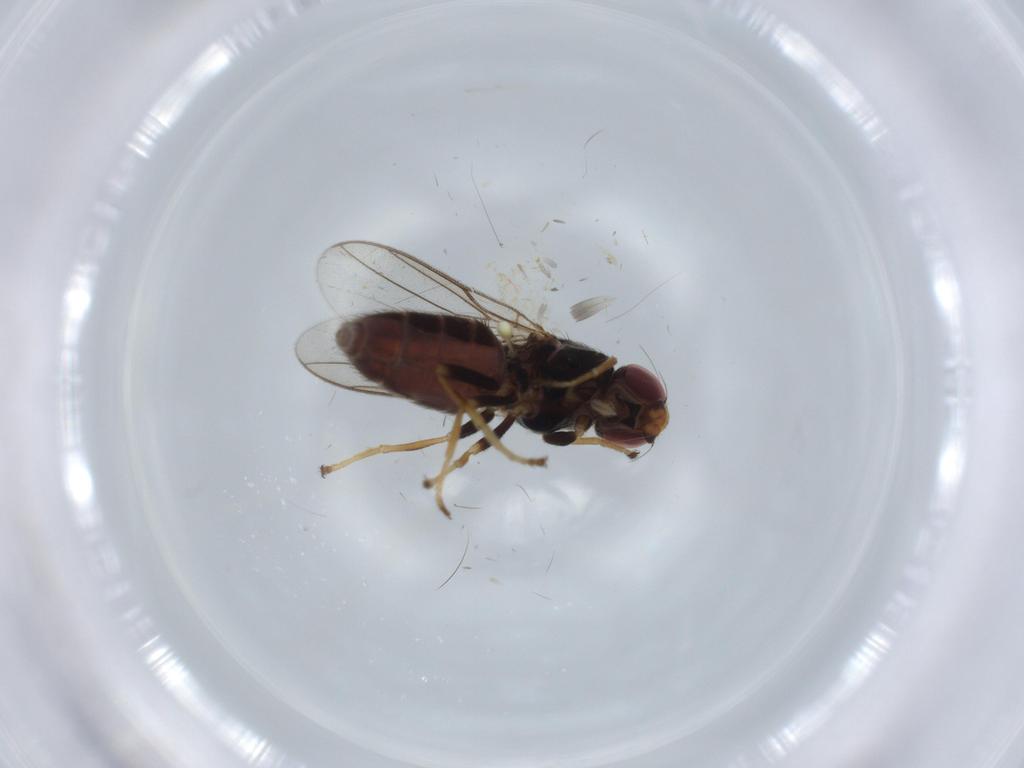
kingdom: Animalia
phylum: Arthropoda
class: Insecta
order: Diptera
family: Chloropidae
